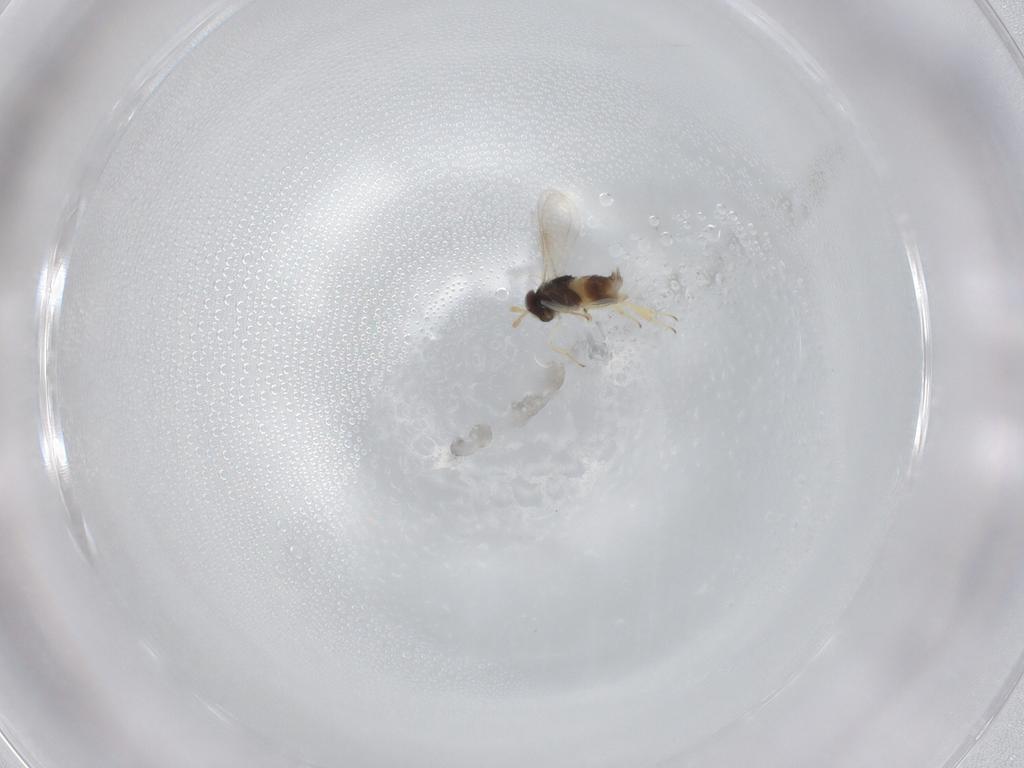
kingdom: Animalia
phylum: Arthropoda
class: Insecta
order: Hymenoptera
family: Aphelinidae
